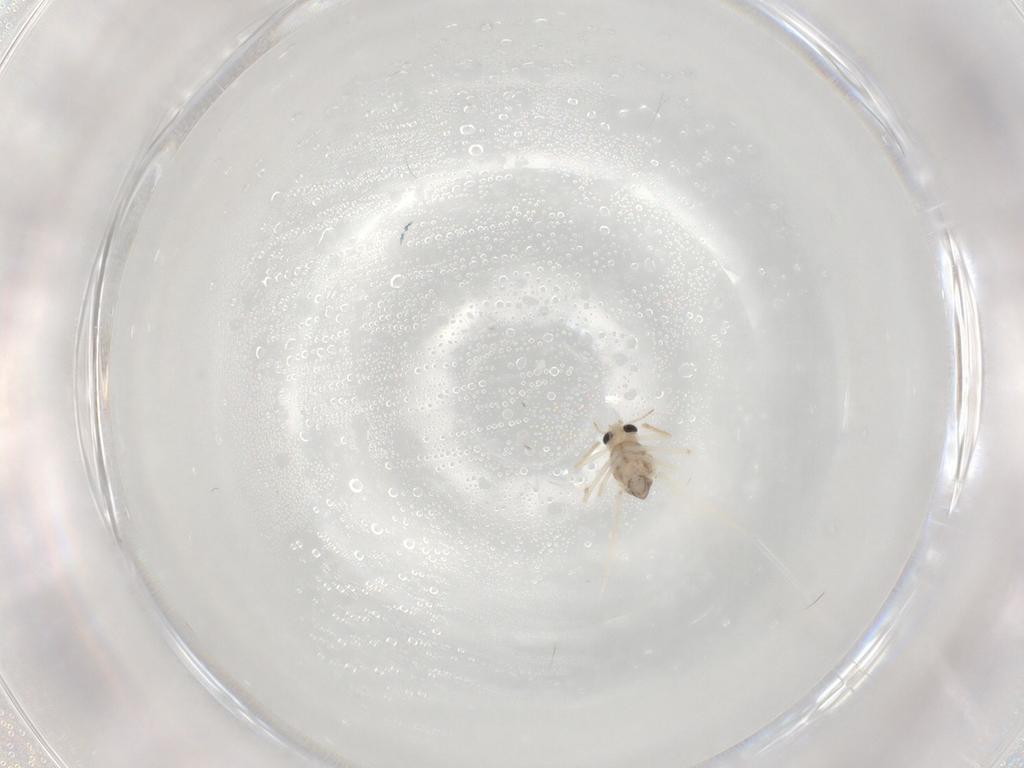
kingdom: Animalia
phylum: Arthropoda
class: Insecta
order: Diptera
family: Chironomidae
